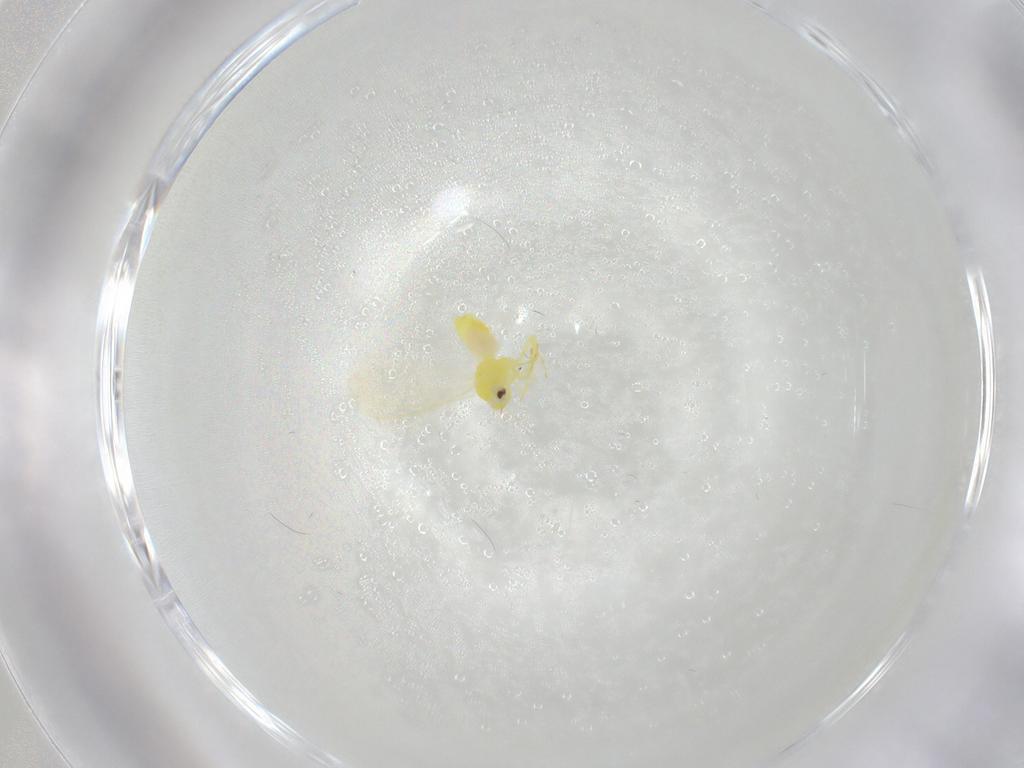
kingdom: Animalia
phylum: Arthropoda
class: Insecta
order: Hemiptera
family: Aleyrodidae
